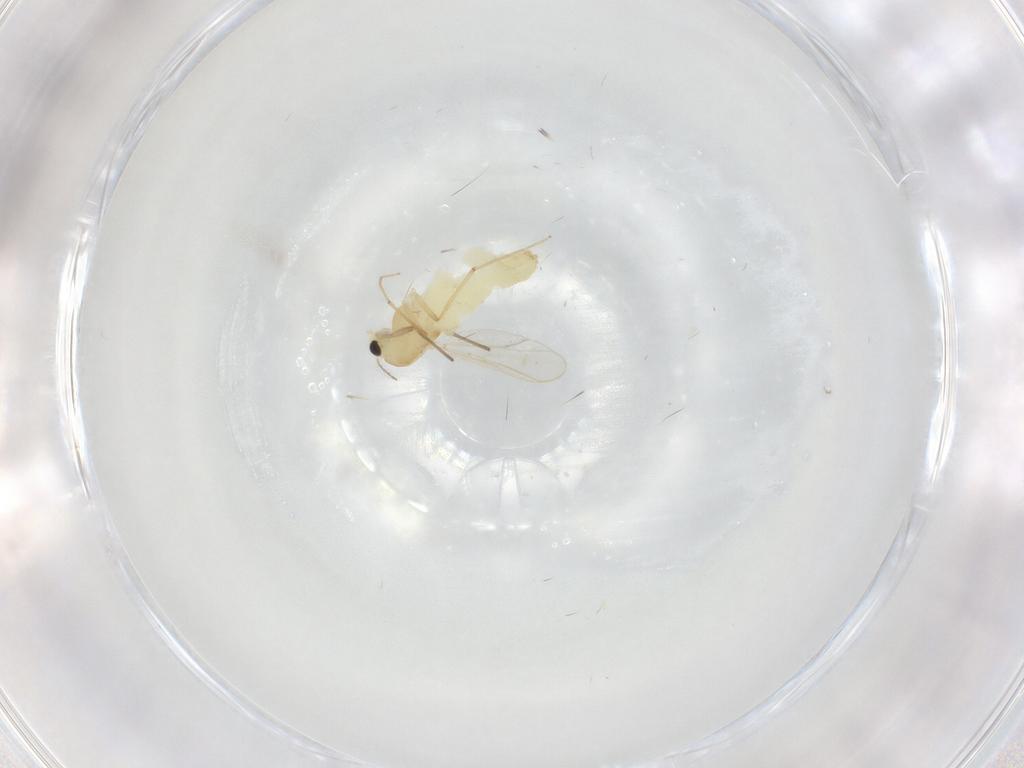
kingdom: Animalia
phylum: Arthropoda
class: Insecta
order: Diptera
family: Chironomidae
